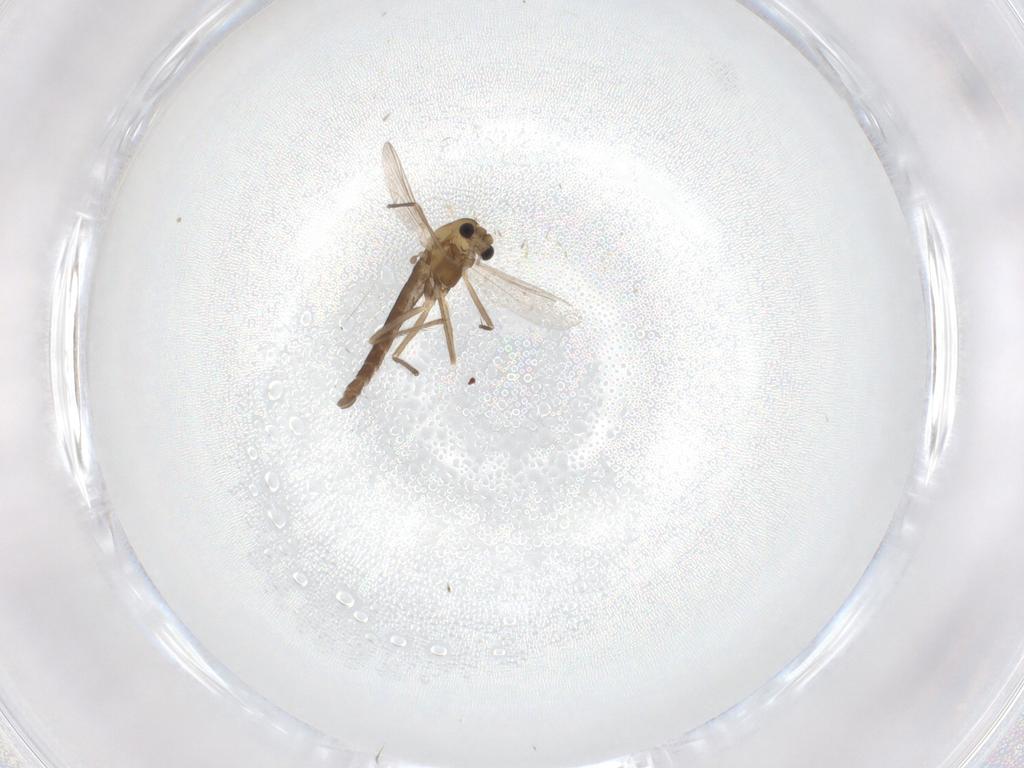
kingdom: Animalia
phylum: Arthropoda
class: Insecta
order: Diptera
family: Chironomidae
